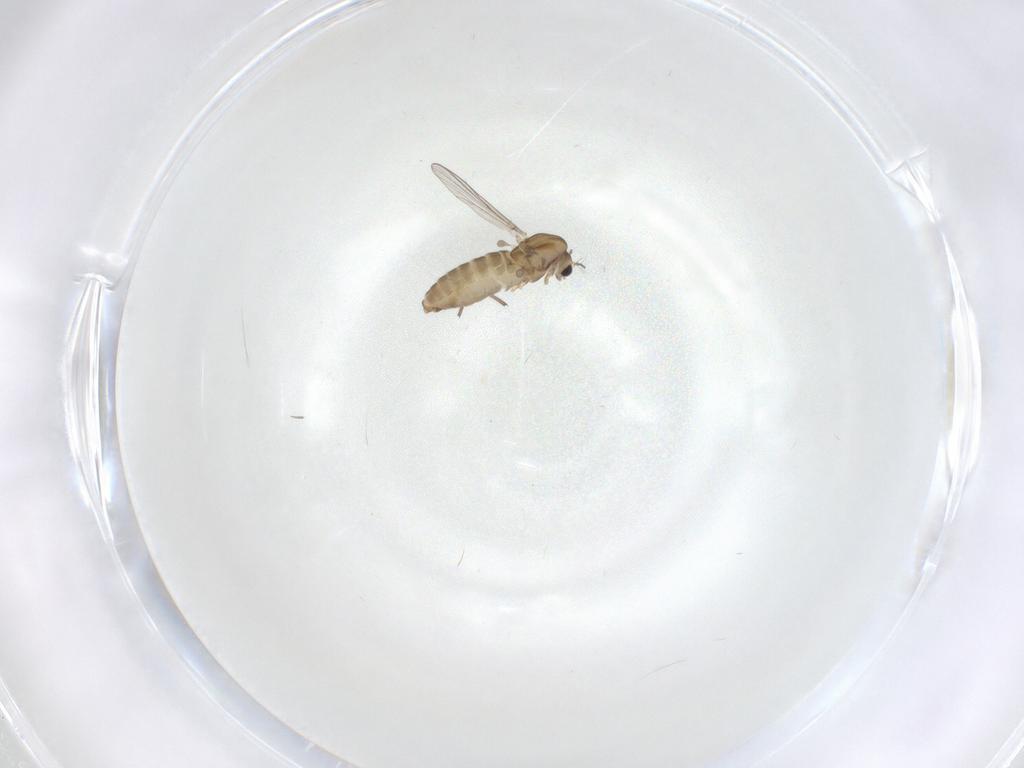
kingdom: Animalia
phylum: Arthropoda
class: Insecta
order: Diptera
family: Chironomidae
